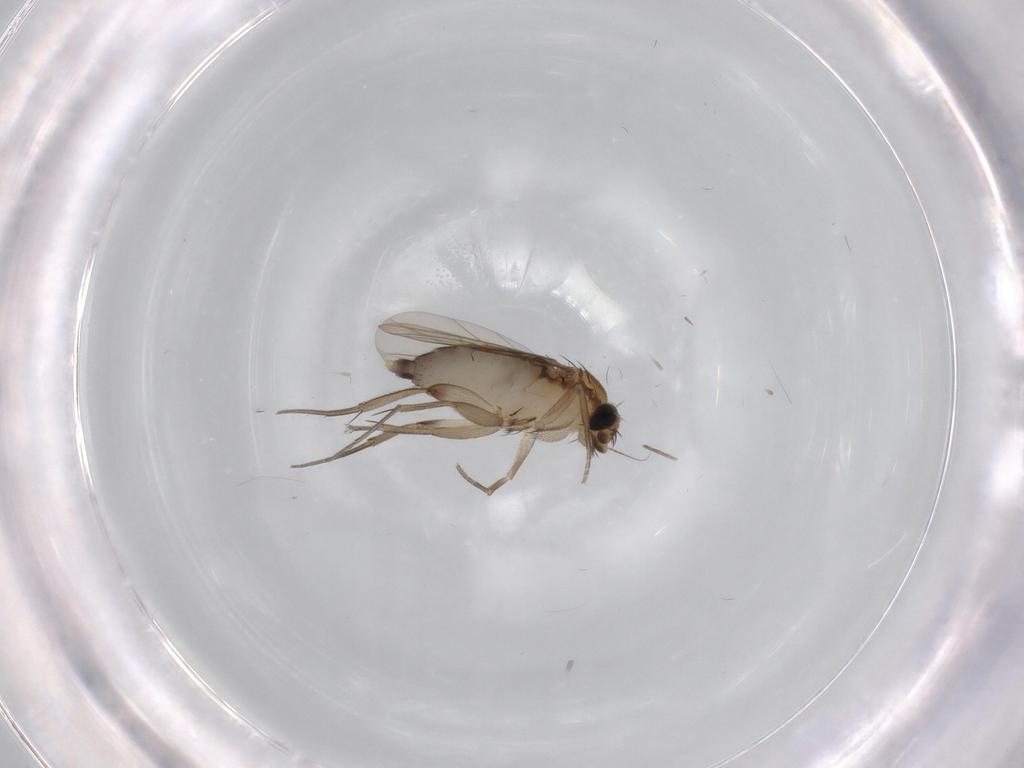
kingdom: Animalia
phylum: Arthropoda
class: Insecta
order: Diptera
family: Phoridae
